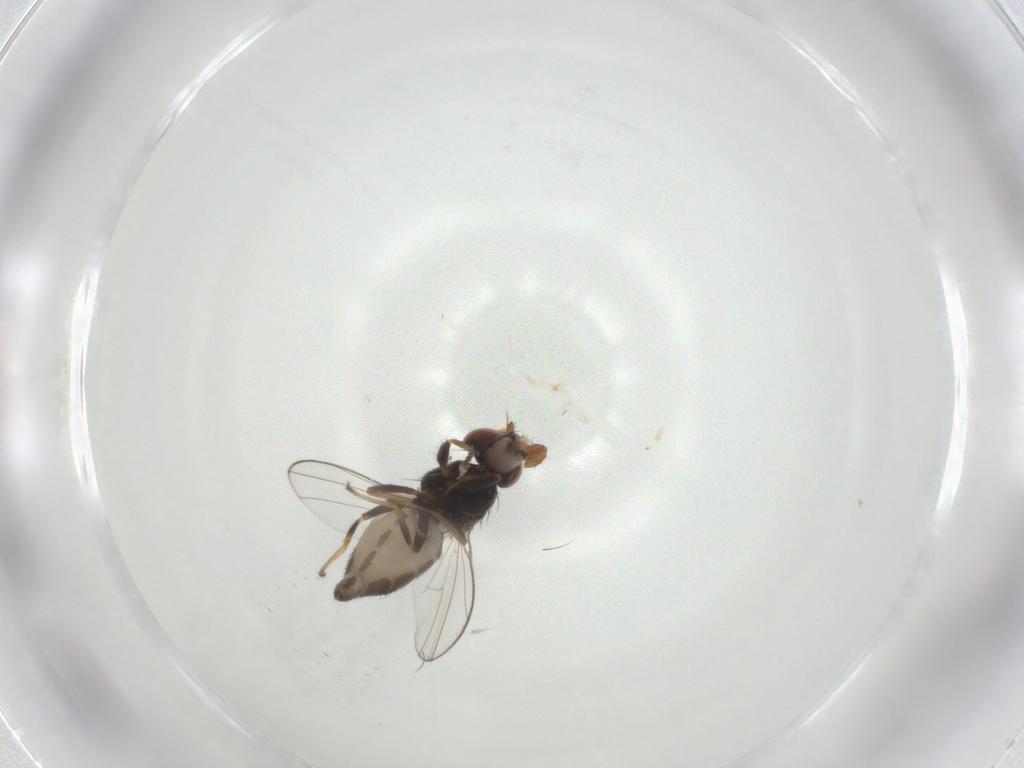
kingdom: Animalia
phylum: Arthropoda
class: Insecta
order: Diptera
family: Ephydridae
